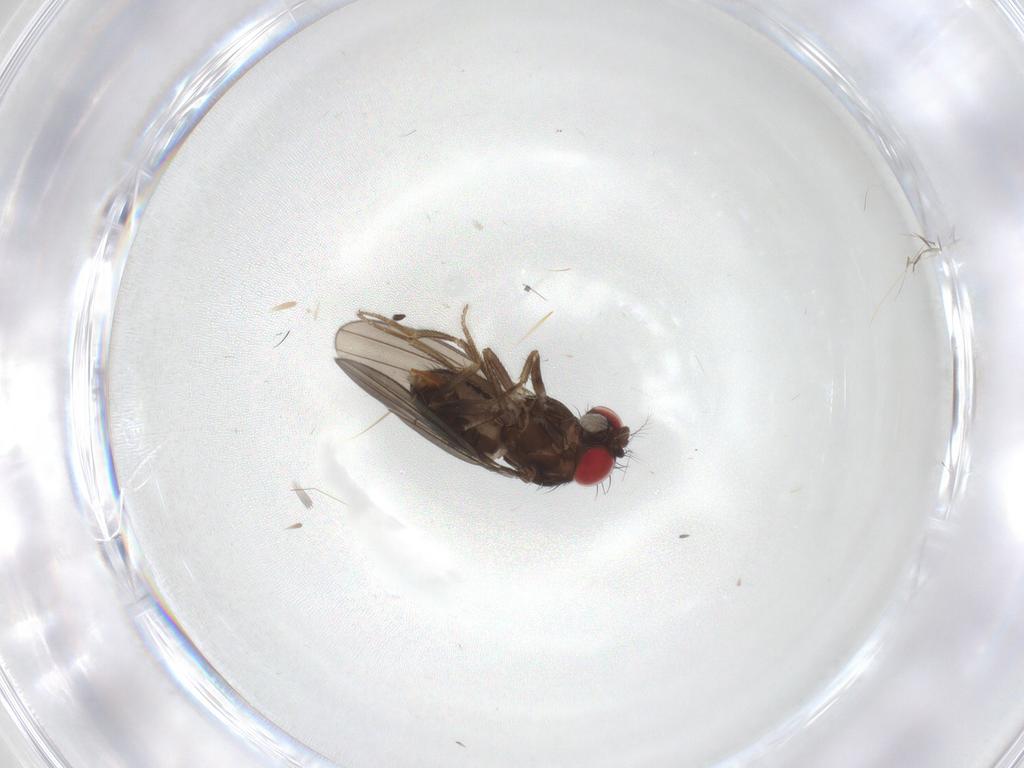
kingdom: Animalia
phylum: Arthropoda
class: Insecta
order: Diptera
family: Drosophilidae
